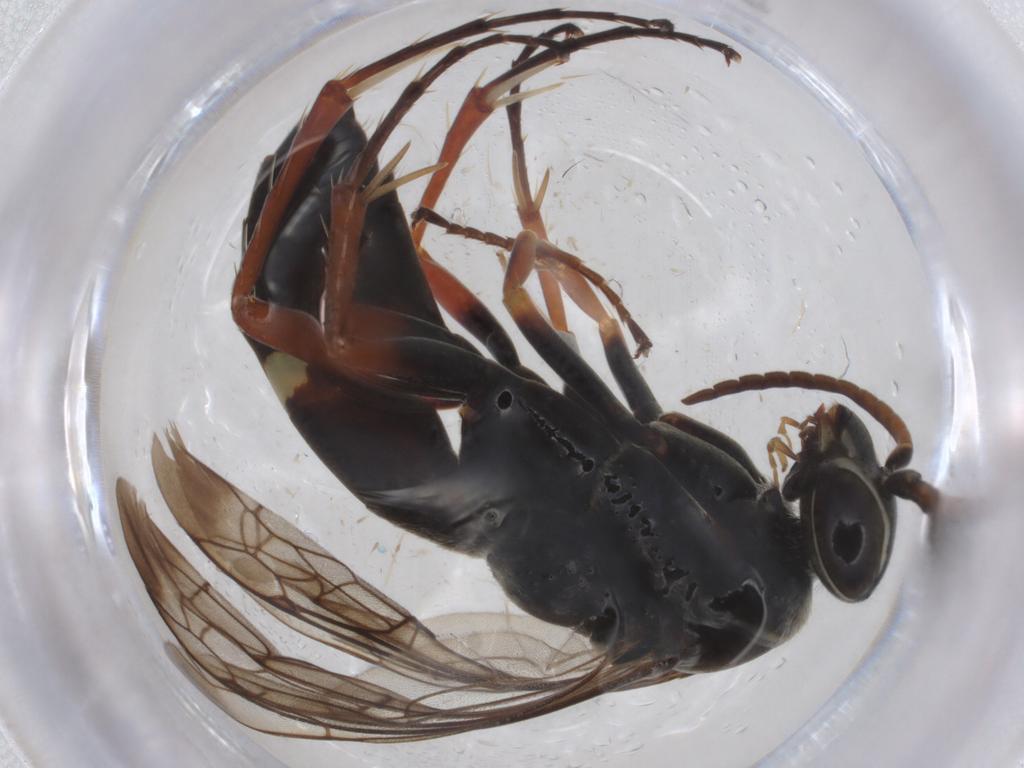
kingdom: Animalia
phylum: Arthropoda
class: Insecta
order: Hymenoptera
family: Pompilidae
